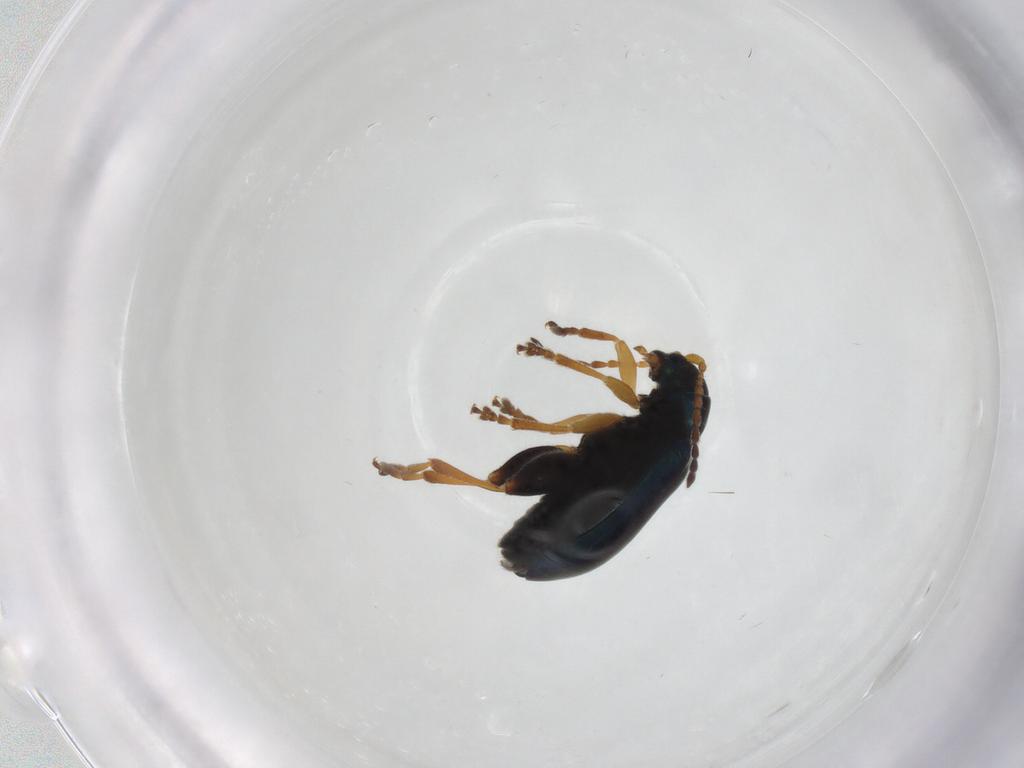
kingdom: Animalia
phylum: Arthropoda
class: Insecta
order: Coleoptera
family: Chrysomelidae
